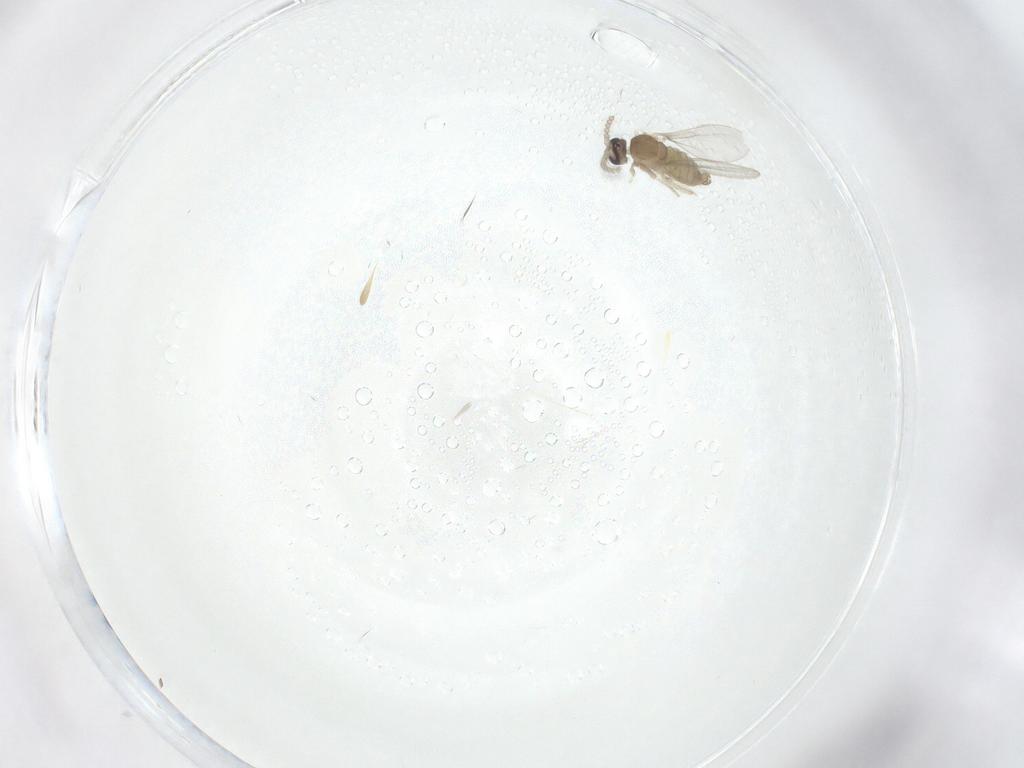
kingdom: Animalia
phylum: Arthropoda
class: Insecta
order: Diptera
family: Cecidomyiidae
